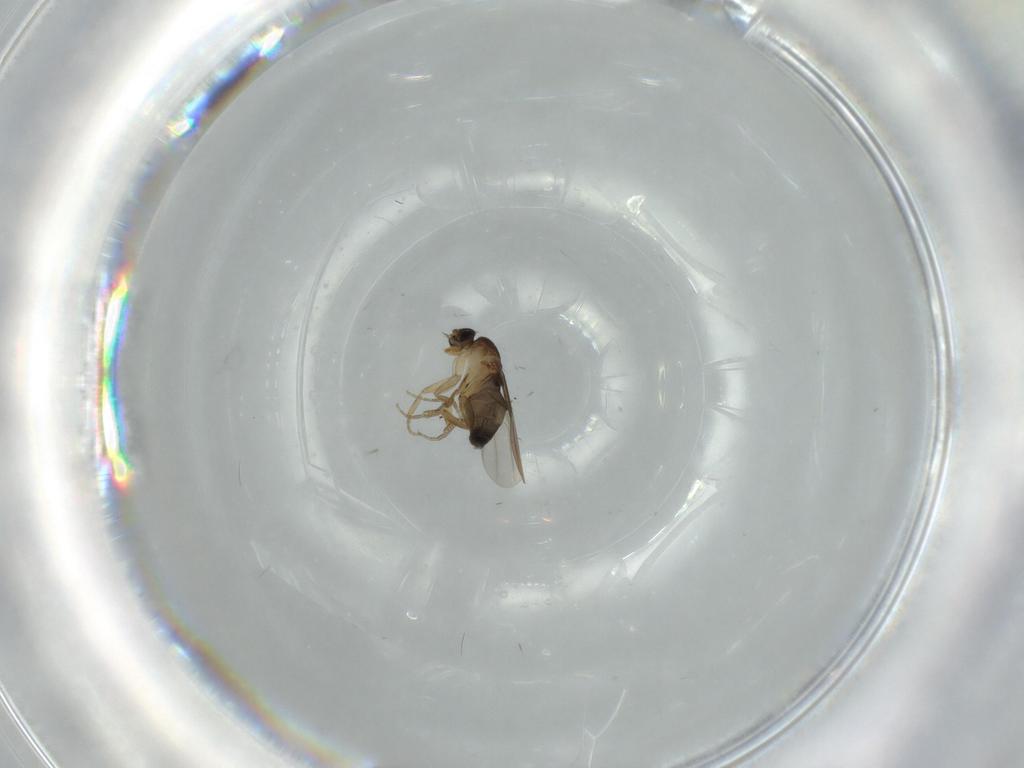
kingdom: Animalia
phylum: Arthropoda
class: Insecta
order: Diptera
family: Phoridae
